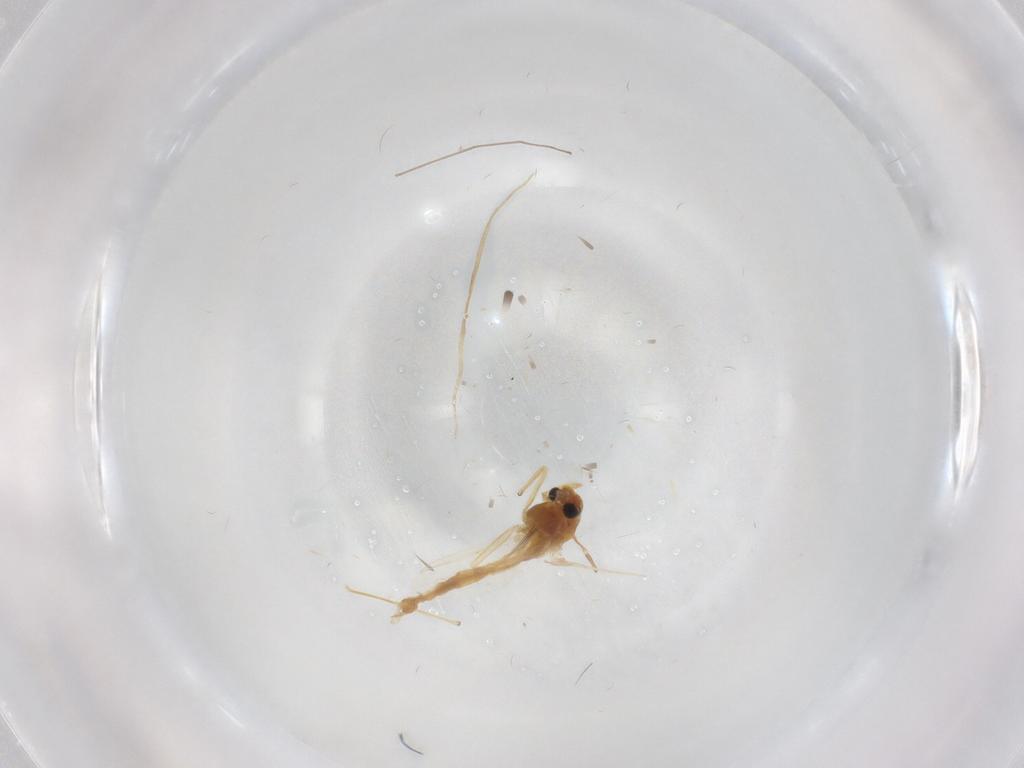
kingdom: Animalia
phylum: Arthropoda
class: Insecta
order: Diptera
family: Chironomidae
